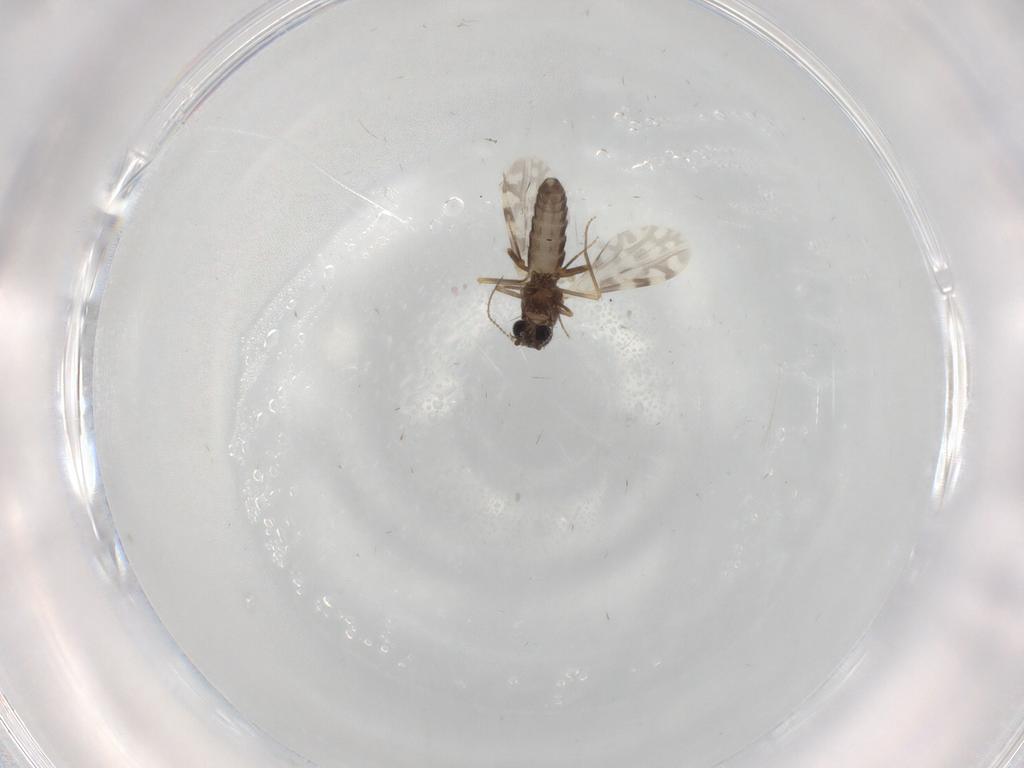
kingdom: Animalia
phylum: Arthropoda
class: Insecta
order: Diptera
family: Ceratopogonidae
